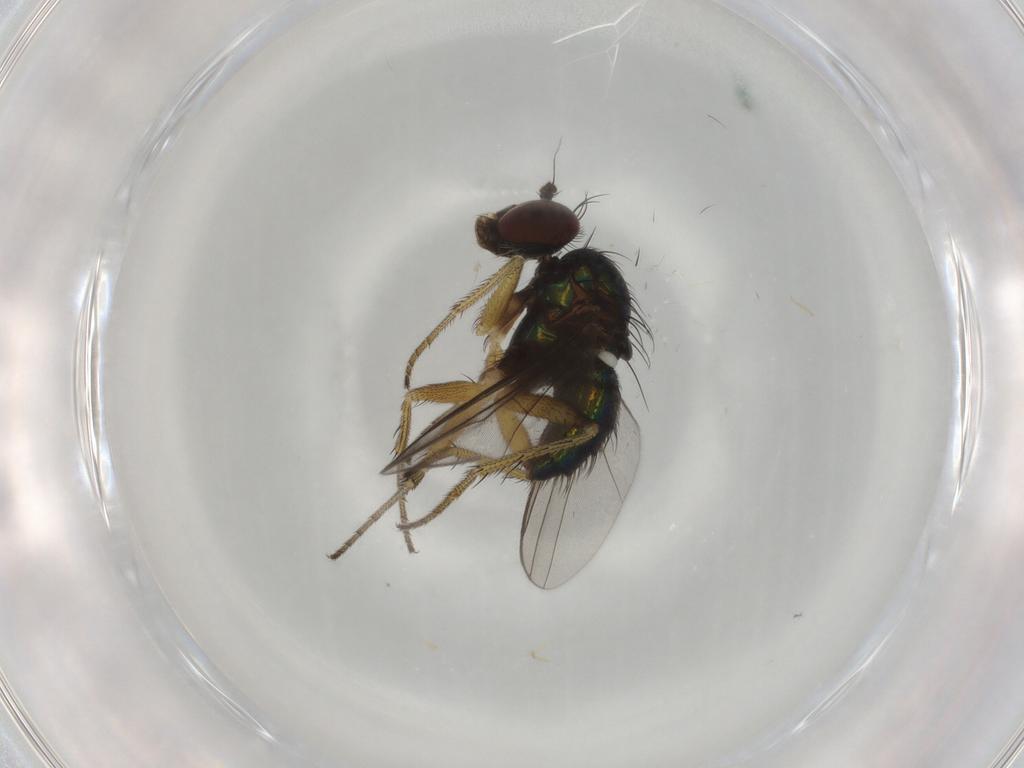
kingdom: Animalia
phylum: Arthropoda
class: Insecta
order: Diptera
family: Dolichopodidae
